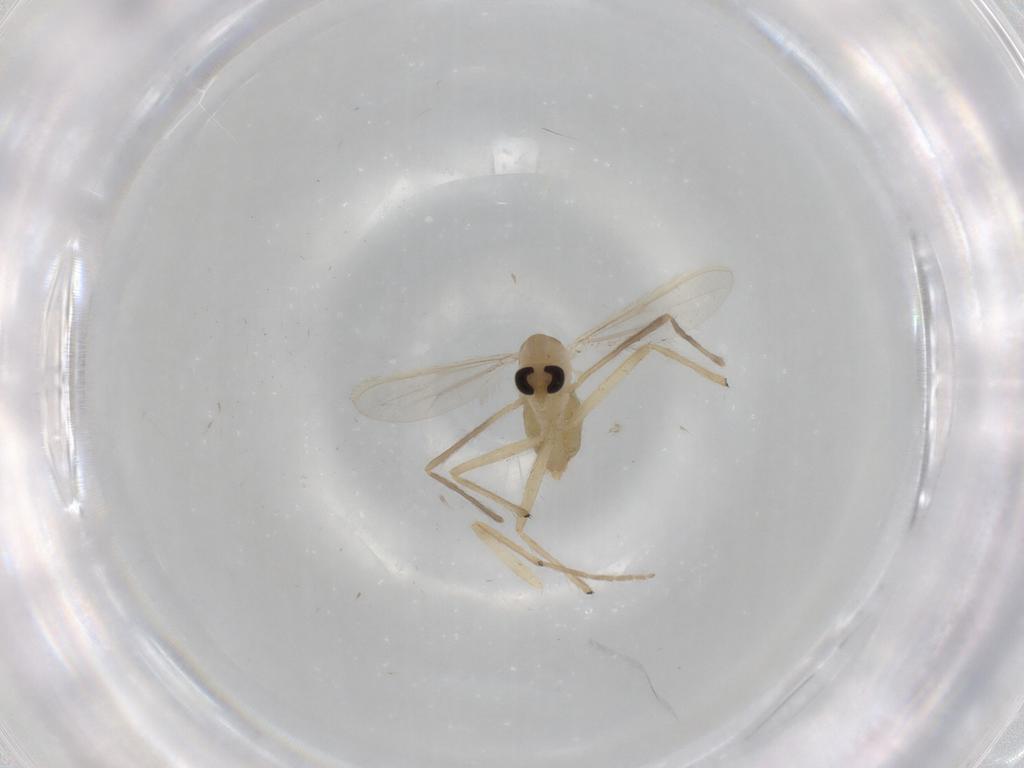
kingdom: Animalia
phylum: Arthropoda
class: Insecta
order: Diptera
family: Chironomidae
